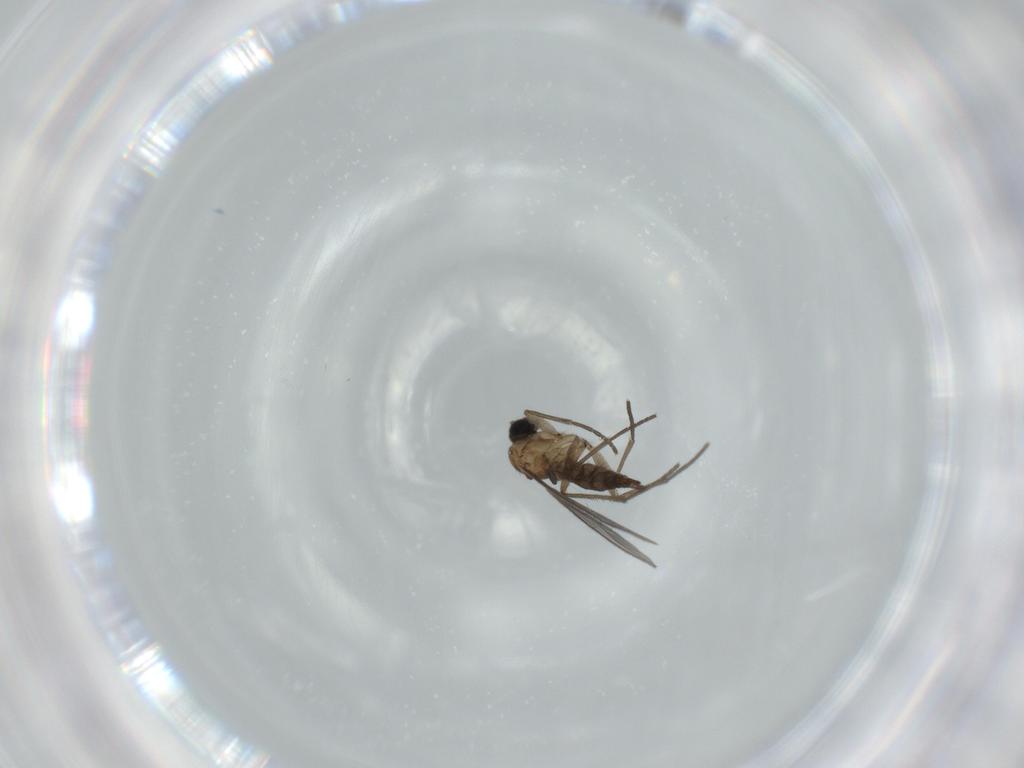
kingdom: Animalia
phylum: Arthropoda
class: Insecta
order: Diptera
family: Sciaridae
